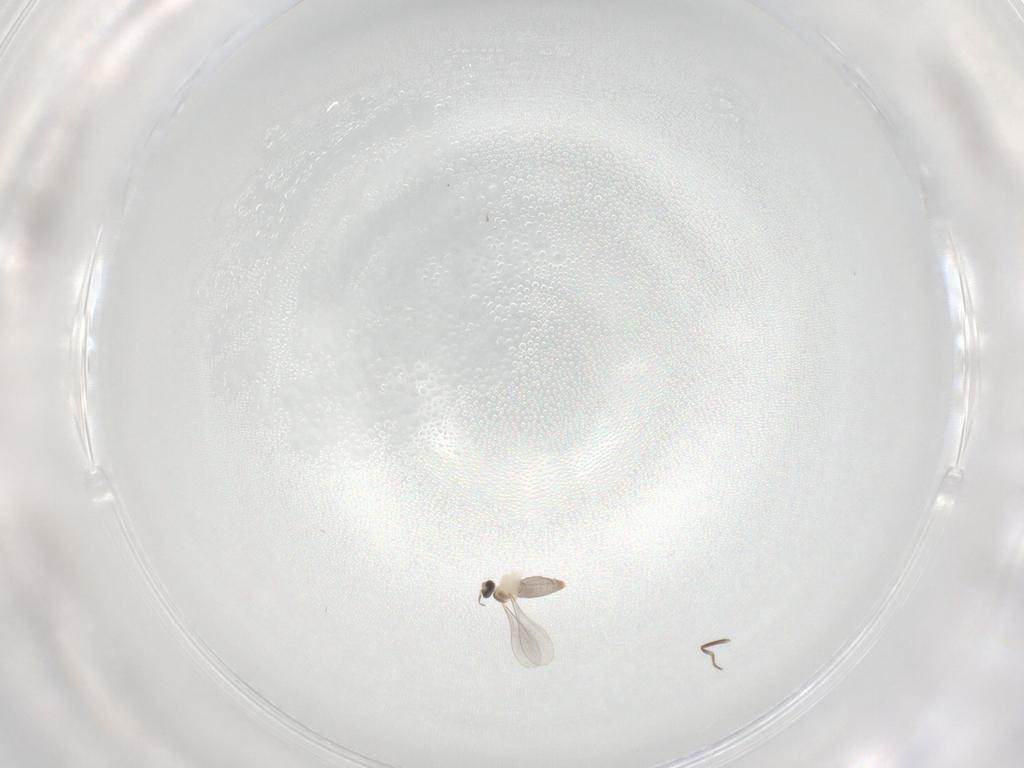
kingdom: Animalia
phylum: Arthropoda
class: Insecta
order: Diptera
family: Cecidomyiidae
